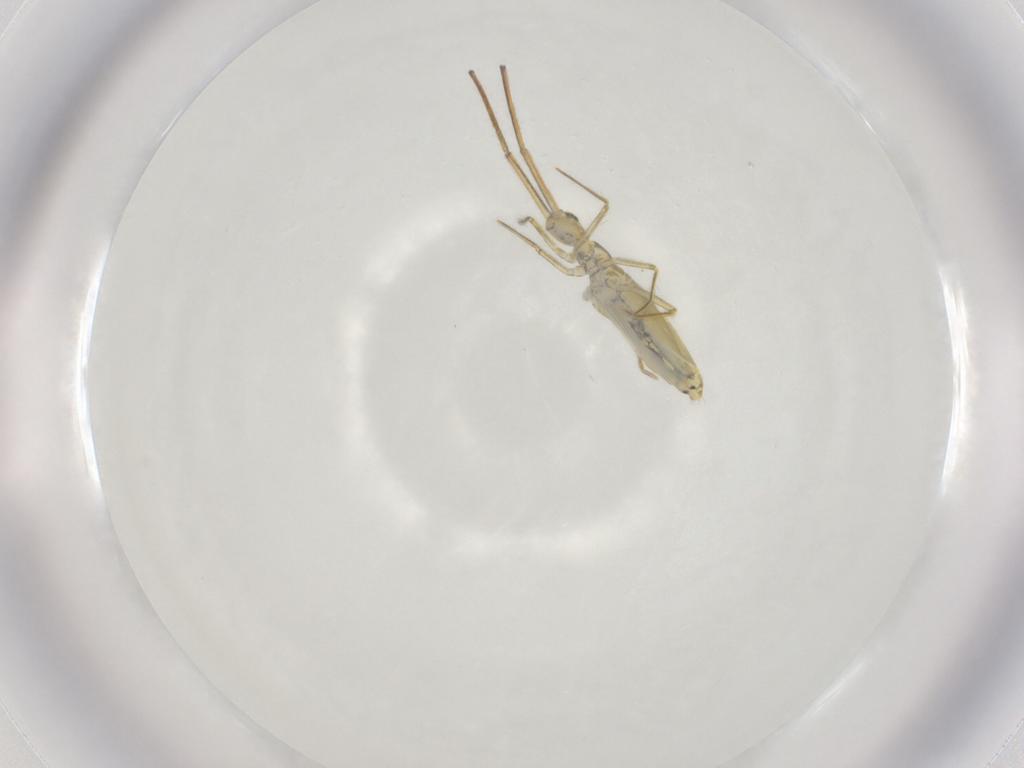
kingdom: Animalia
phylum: Arthropoda
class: Collembola
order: Entomobryomorpha
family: Entomobryidae
